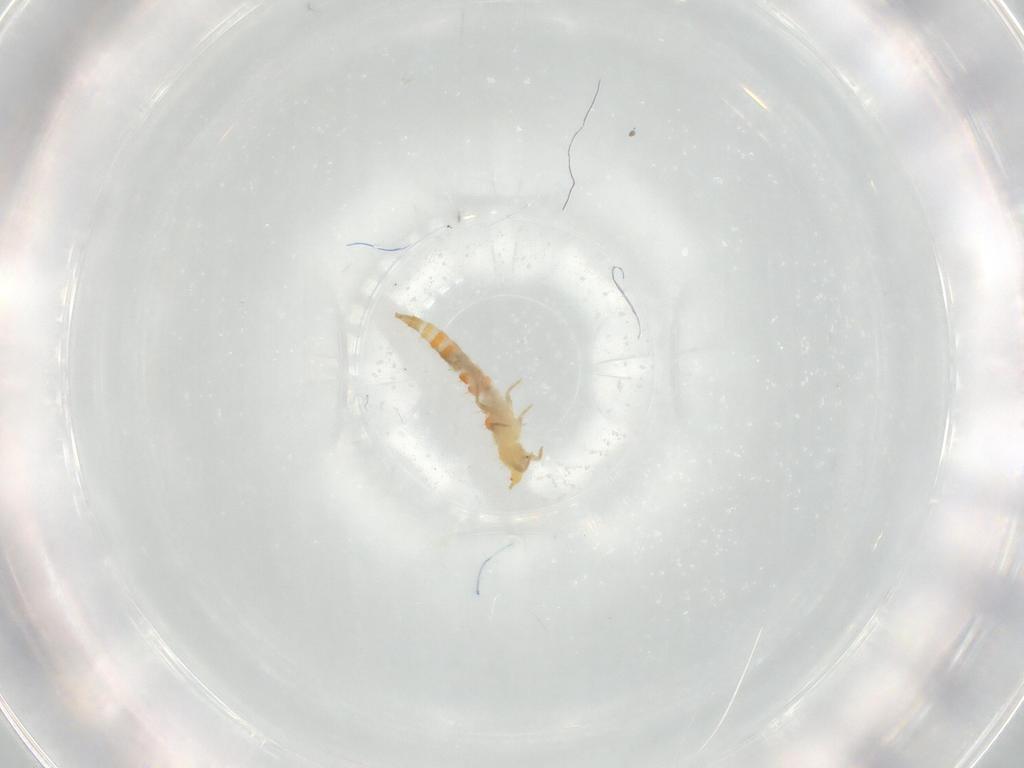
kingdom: Animalia
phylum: Arthropoda
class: Insecta
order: Thysanoptera
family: Phlaeothripidae
